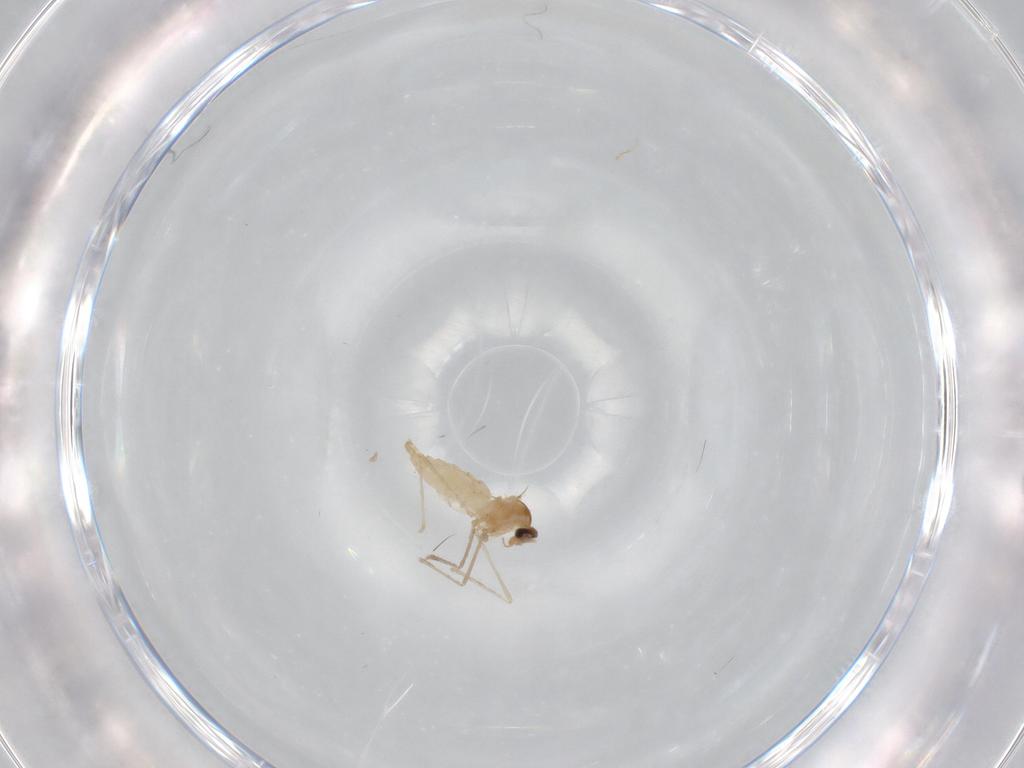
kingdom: Animalia
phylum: Arthropoda
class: Insecta
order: Diptera
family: Cecidomyiidae
